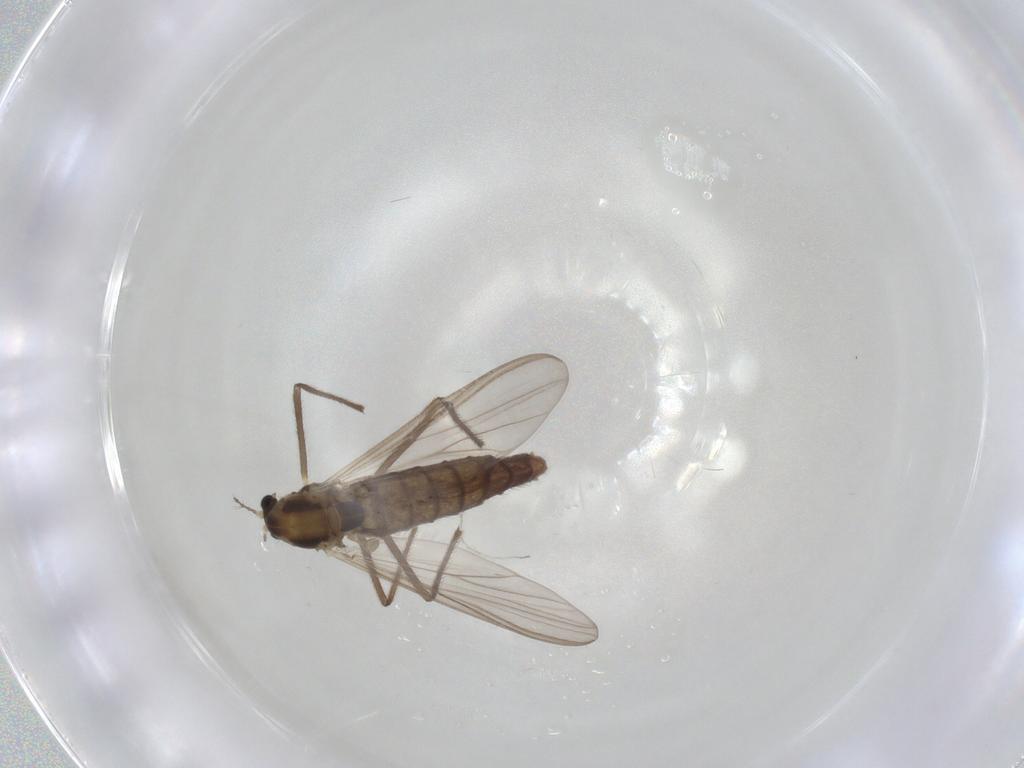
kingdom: Animalia
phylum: Arthropoda
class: Insecta
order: Diptera
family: Chironomidae
